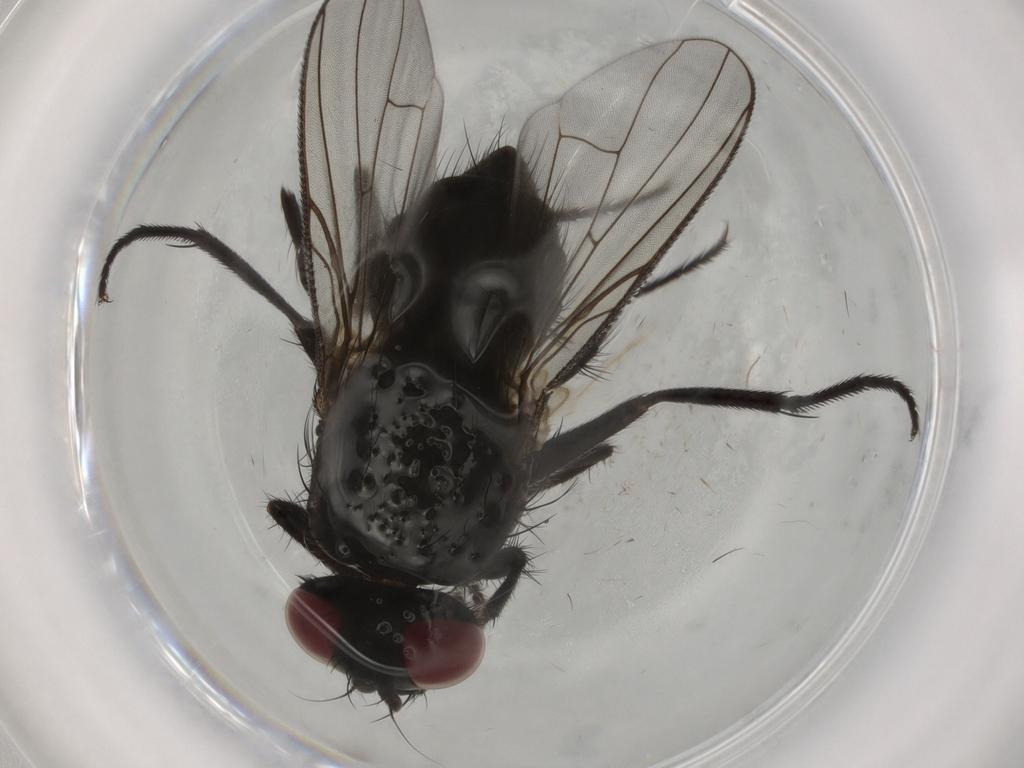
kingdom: Animalia
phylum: Arthropoda
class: Insecta
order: Diptera
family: Muscidae
